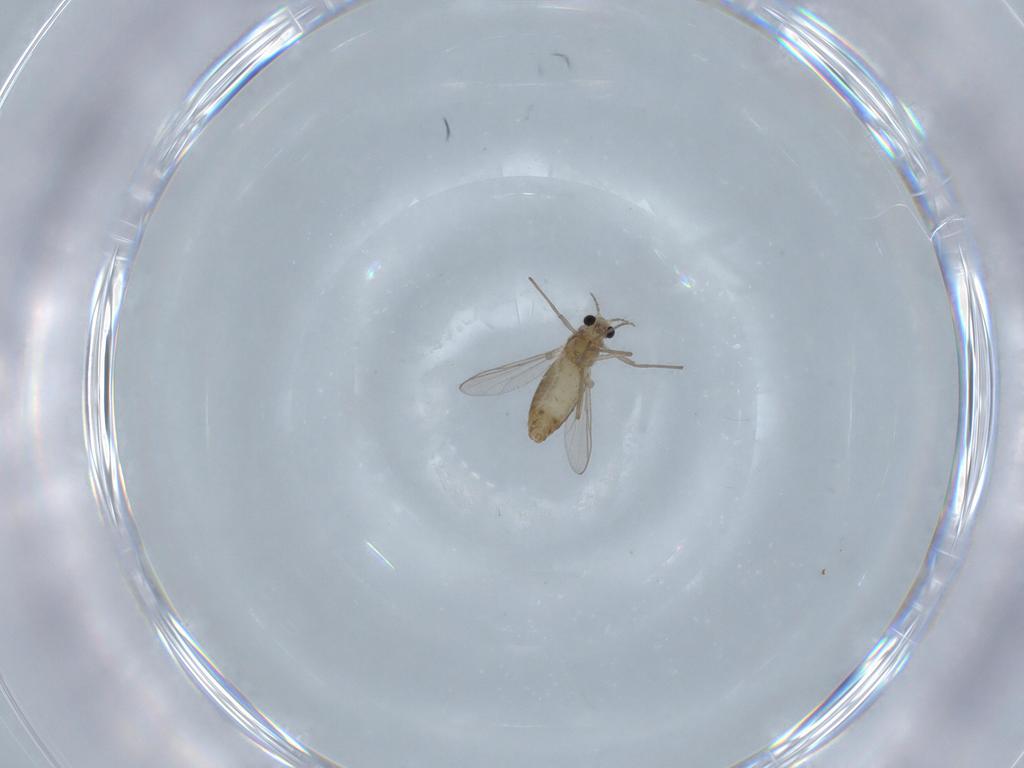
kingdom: Animalia
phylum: Arthropoda
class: Insecta
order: Diptera
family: Chironomidae
